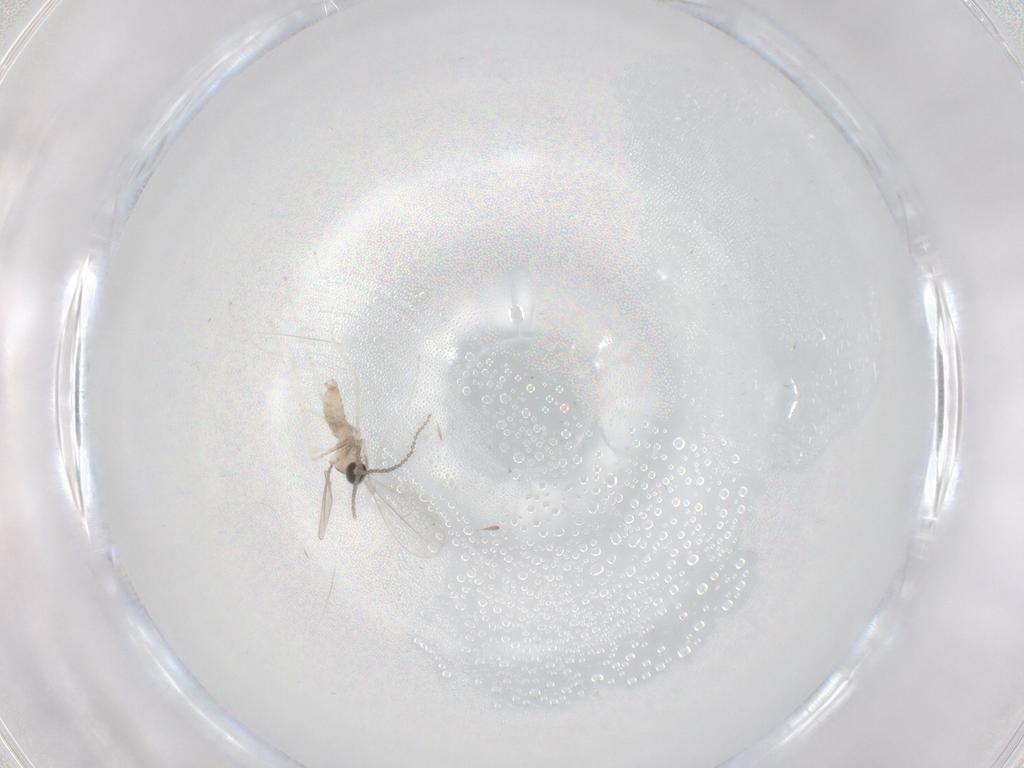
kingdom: Animalia
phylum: Arthropoda
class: Insecta
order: Diptera
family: Cecidomyiidae
